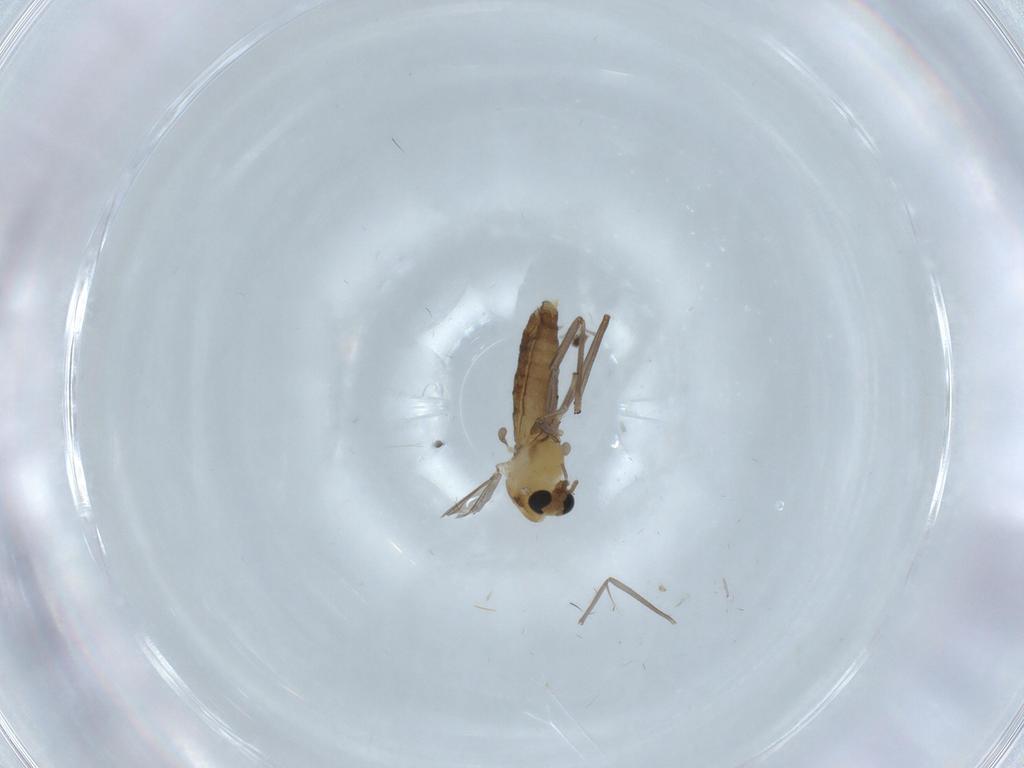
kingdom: Animalia
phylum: Arthropoda
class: Insecta
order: Diptera
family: Chironomidae
